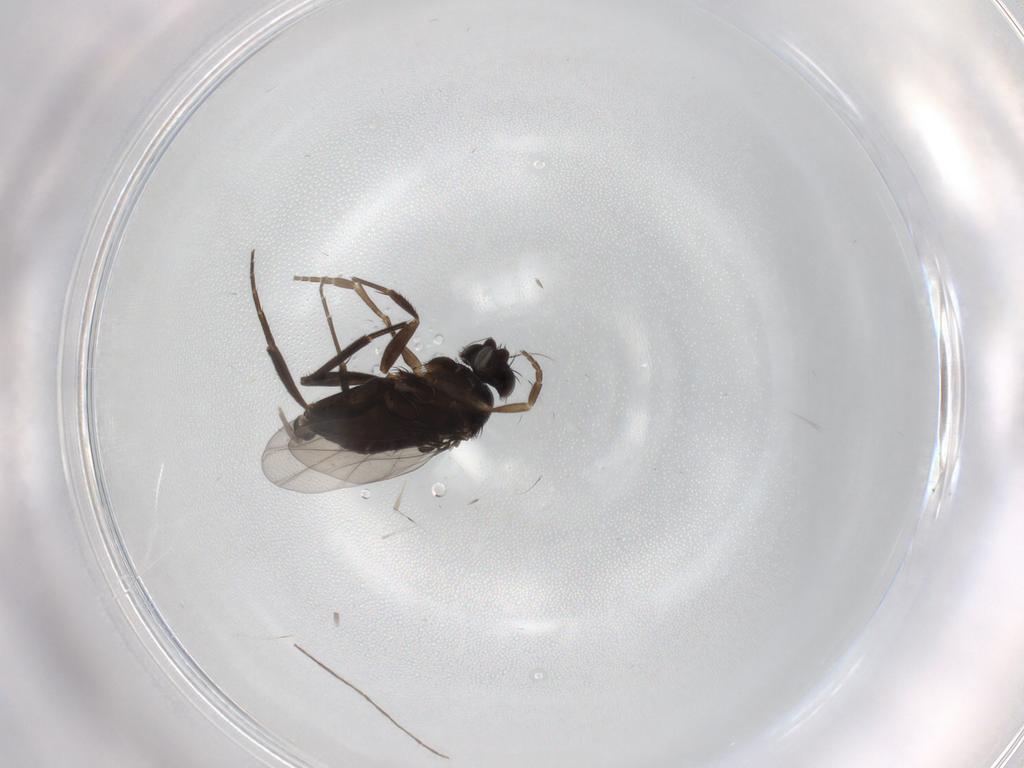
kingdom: Animalia
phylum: Arthropoda
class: Insecta
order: Diptera
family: Phoridae
